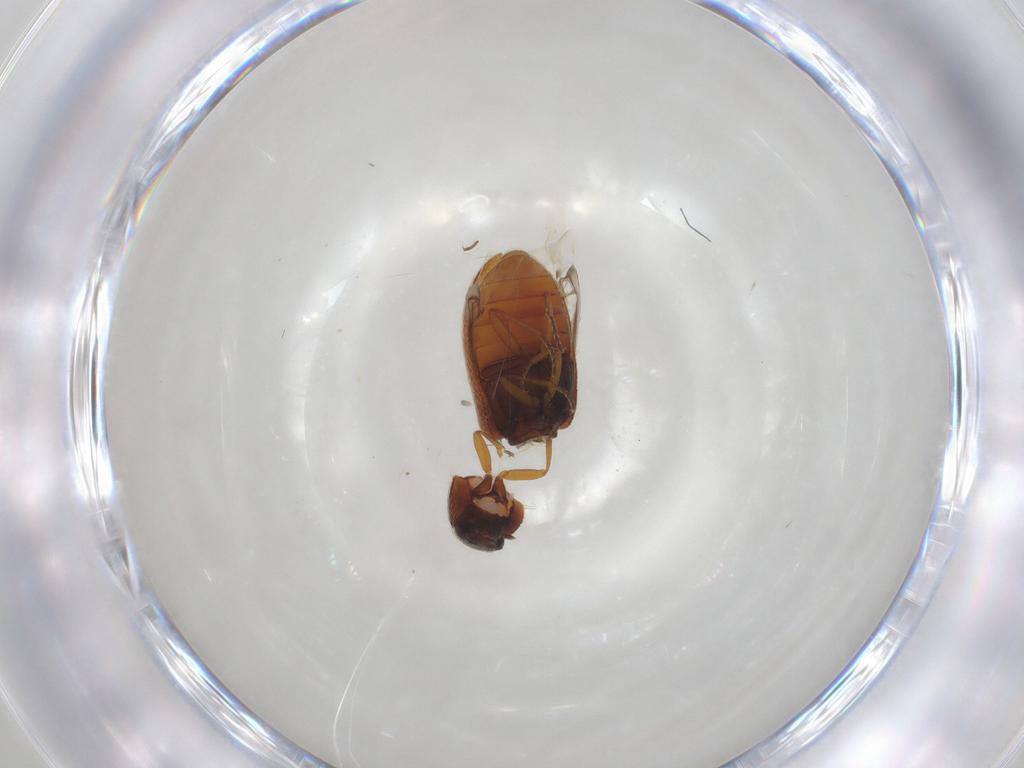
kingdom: Animalia
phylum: Arthropoda
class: Insecta
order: Coleoptera
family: Rhadalidae
